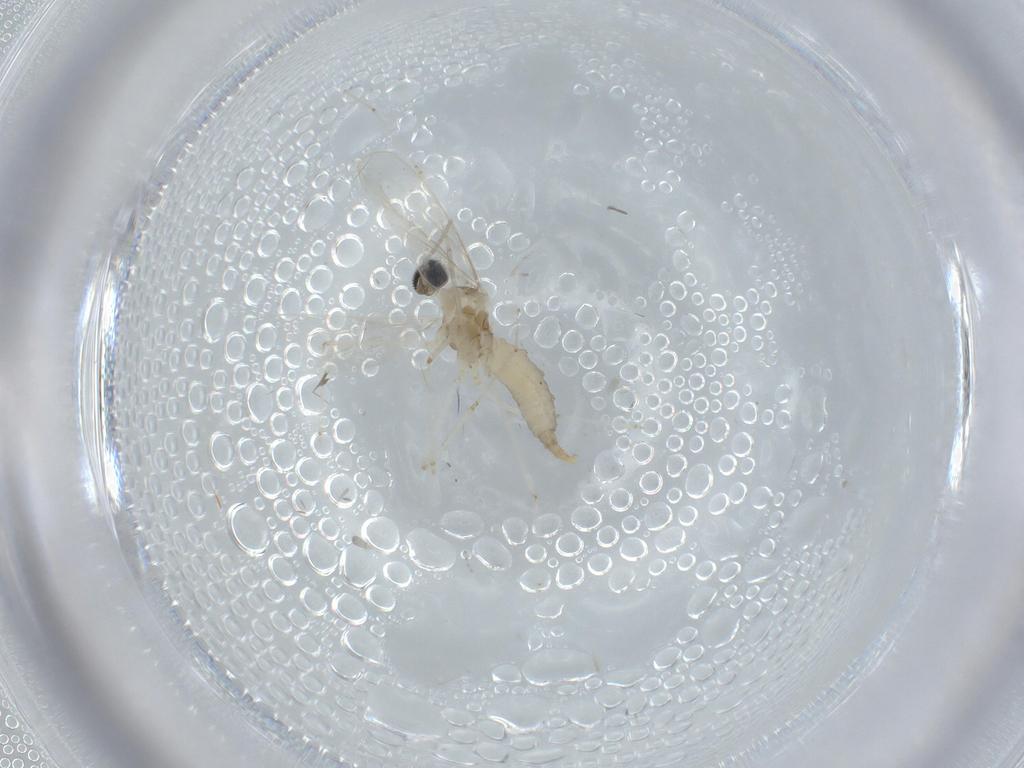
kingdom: Animalia
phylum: Arthropoda
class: Insecta
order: Diptera
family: Cecidomyiidae
